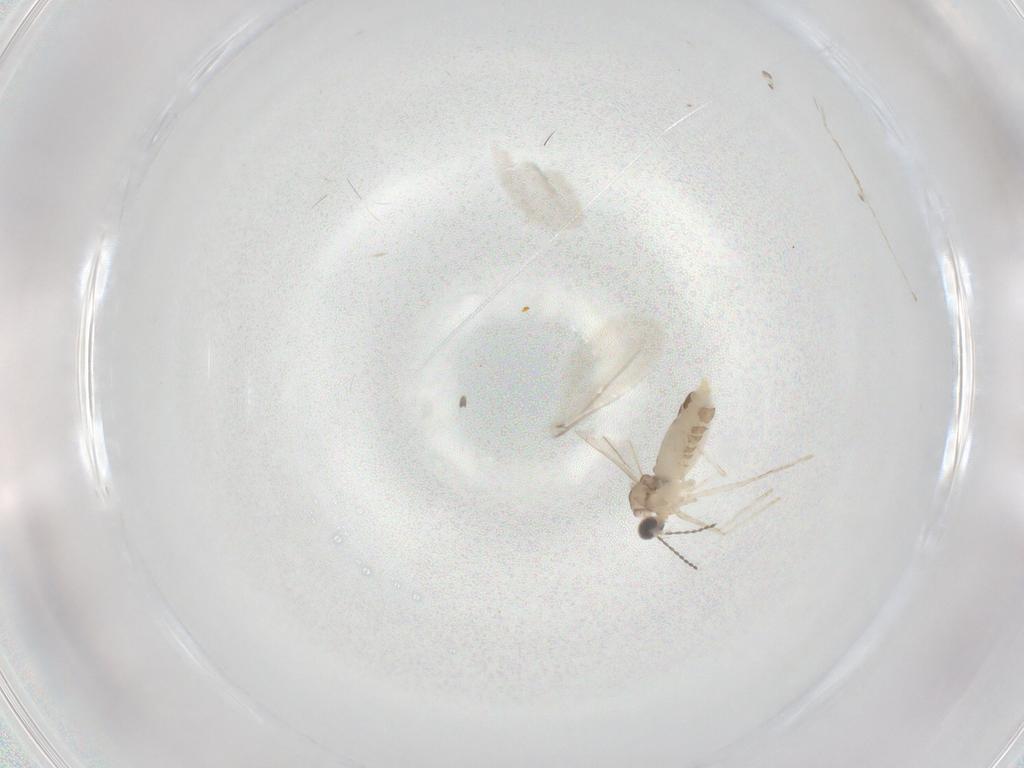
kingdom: Animalia
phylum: Arthropoda
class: Insecta
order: Diptera
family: Cecidomyiidae
